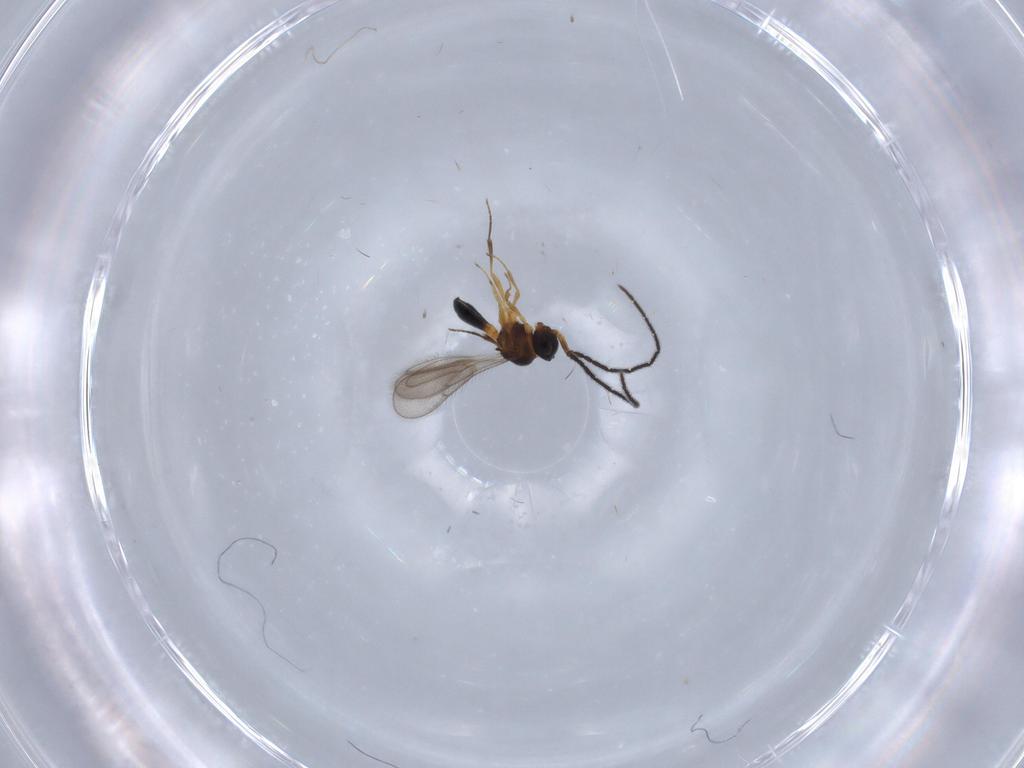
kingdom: Animalia
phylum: Arthropoda
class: Insecta
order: Hymenoptera
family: Scelionidae
